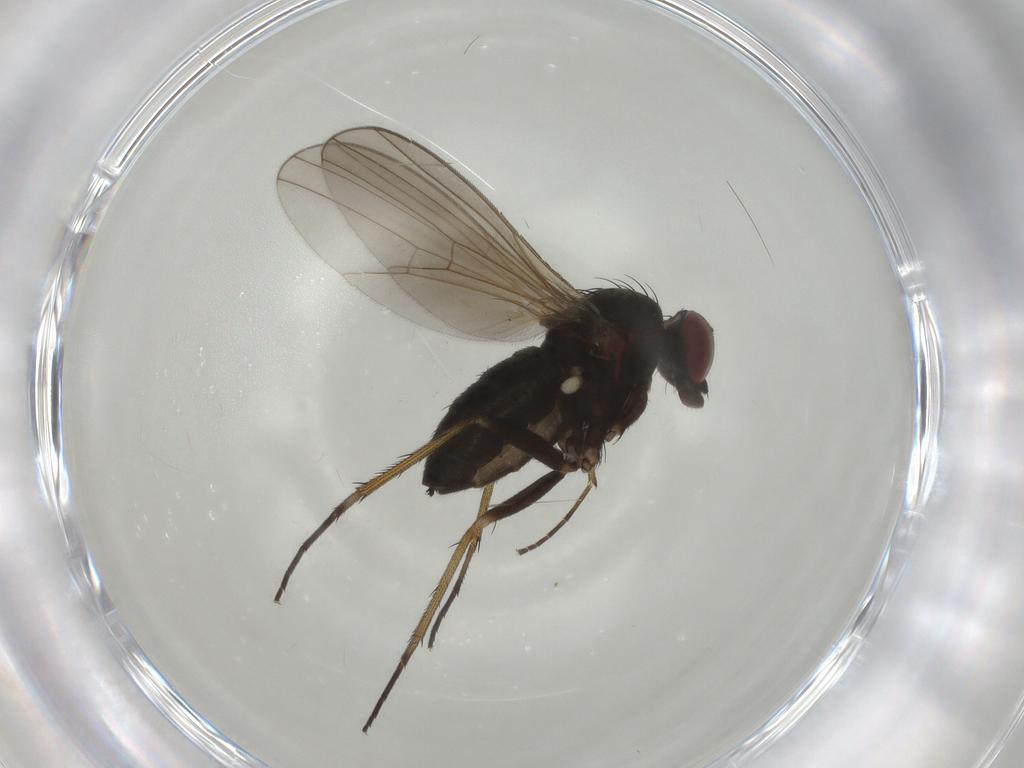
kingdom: Animalia
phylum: Arthropoda
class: Insecta
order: Diptera
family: Dolichopodidae
